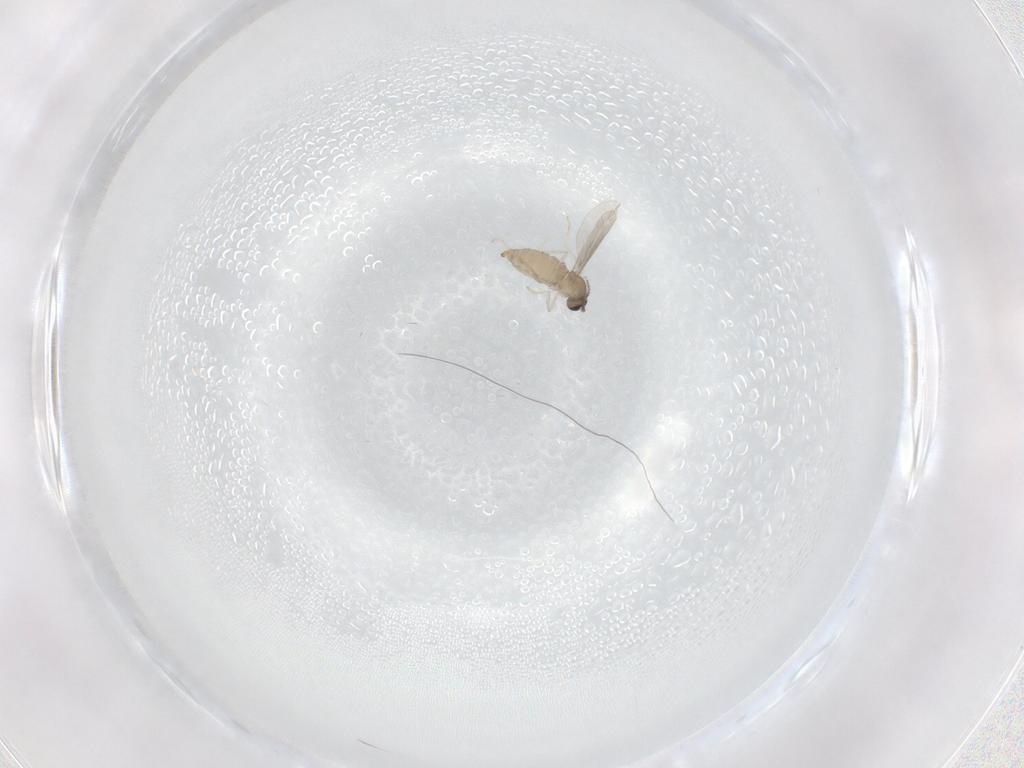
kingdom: Animalia
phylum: Arthropoda
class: Insecta
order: Diptera
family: Cecidomyiidae
